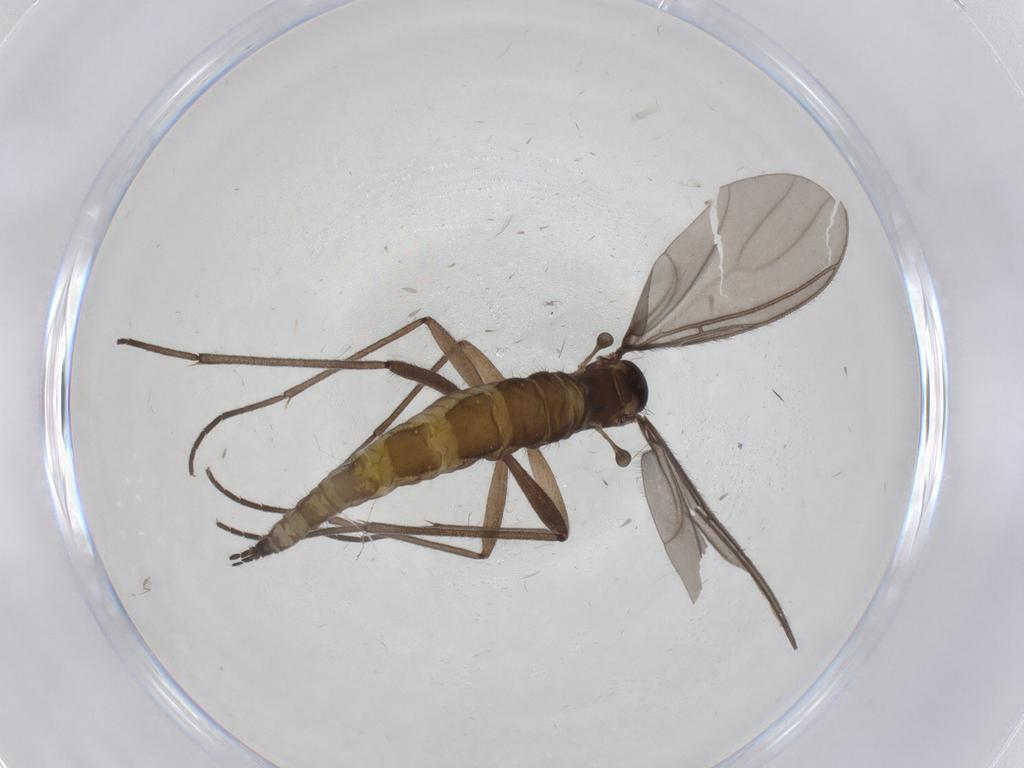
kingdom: Animalia
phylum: Arthropoda
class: Insecta
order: Diptera
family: Sciaridae
